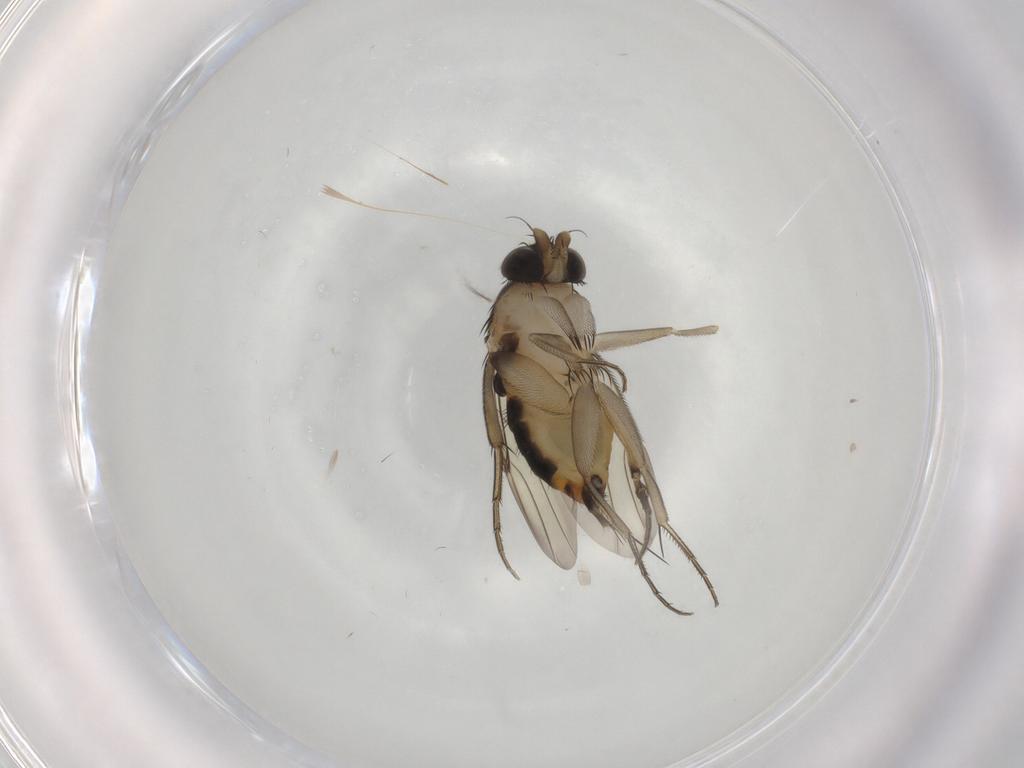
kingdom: Animalia
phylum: Arthropoda
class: Insecta
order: Diptera
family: Phoridae
